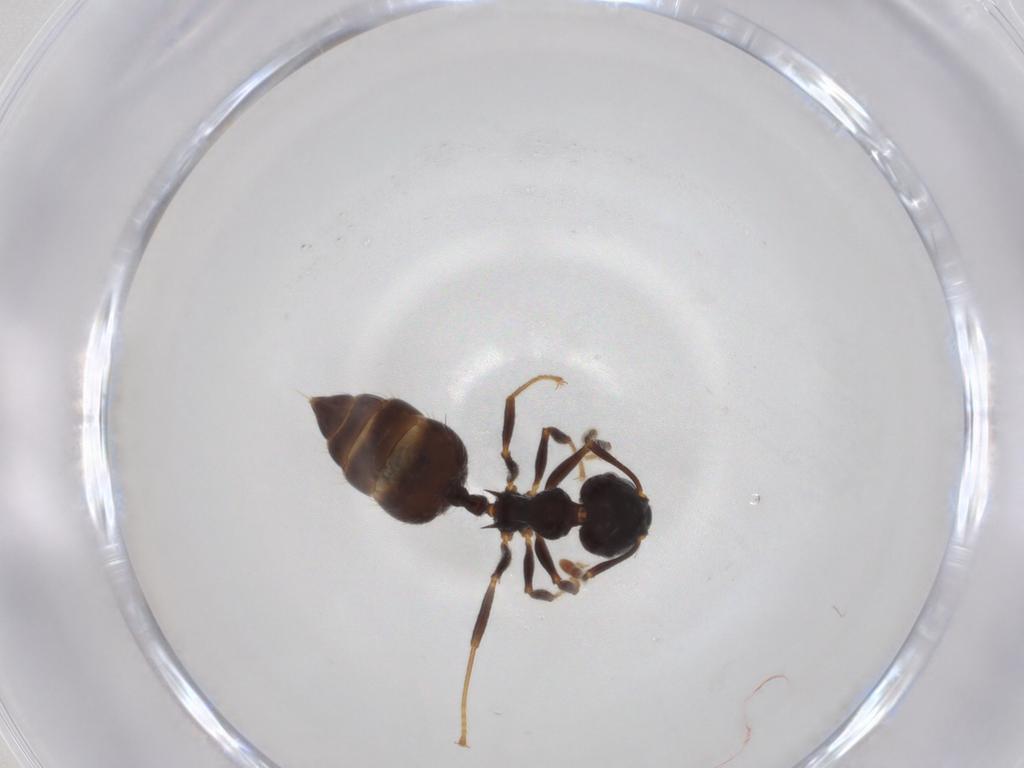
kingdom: Animalia
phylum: Arthropoda
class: Insecta
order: Hymenoptera
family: Formicidae
